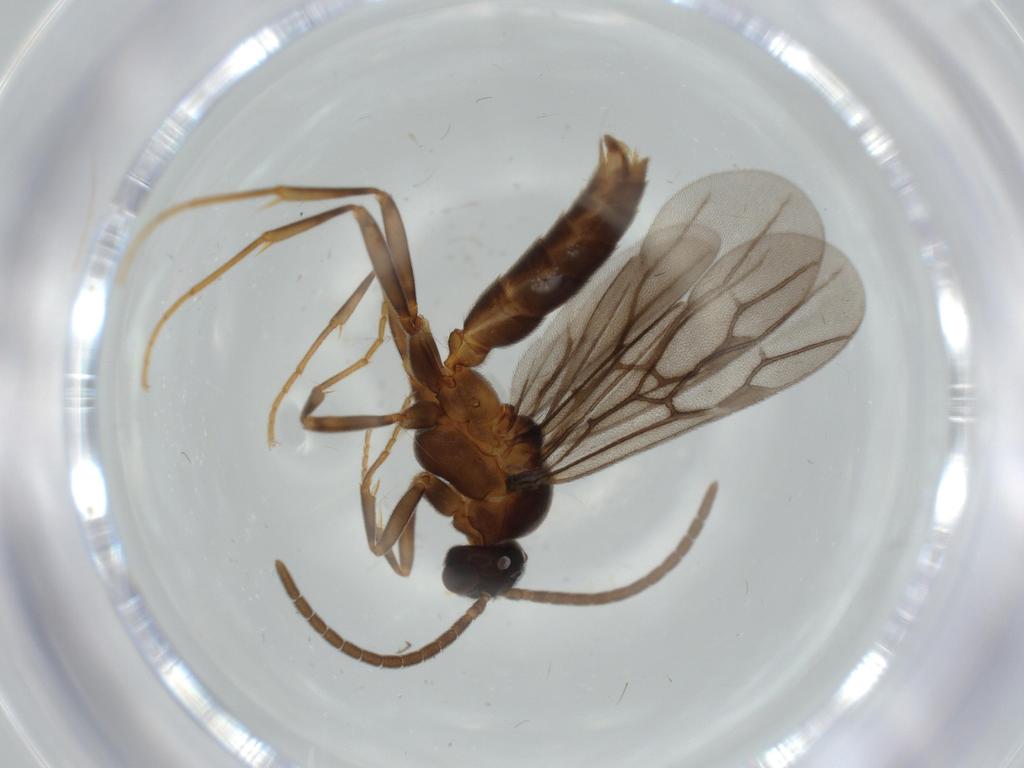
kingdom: Animalia
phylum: Arthropoda
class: Insecta
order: Hymenoptera
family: Formicidae
